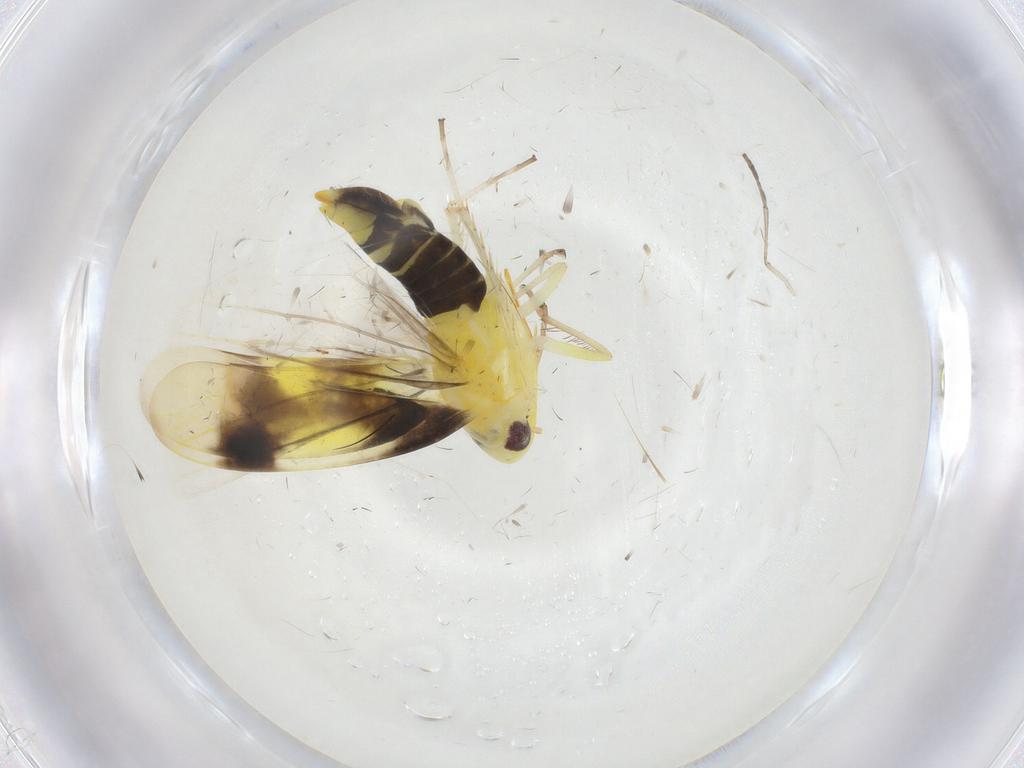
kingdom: Animalia
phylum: Arthropoda
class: Insecta
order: Hemiptera
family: Cicadellidae
